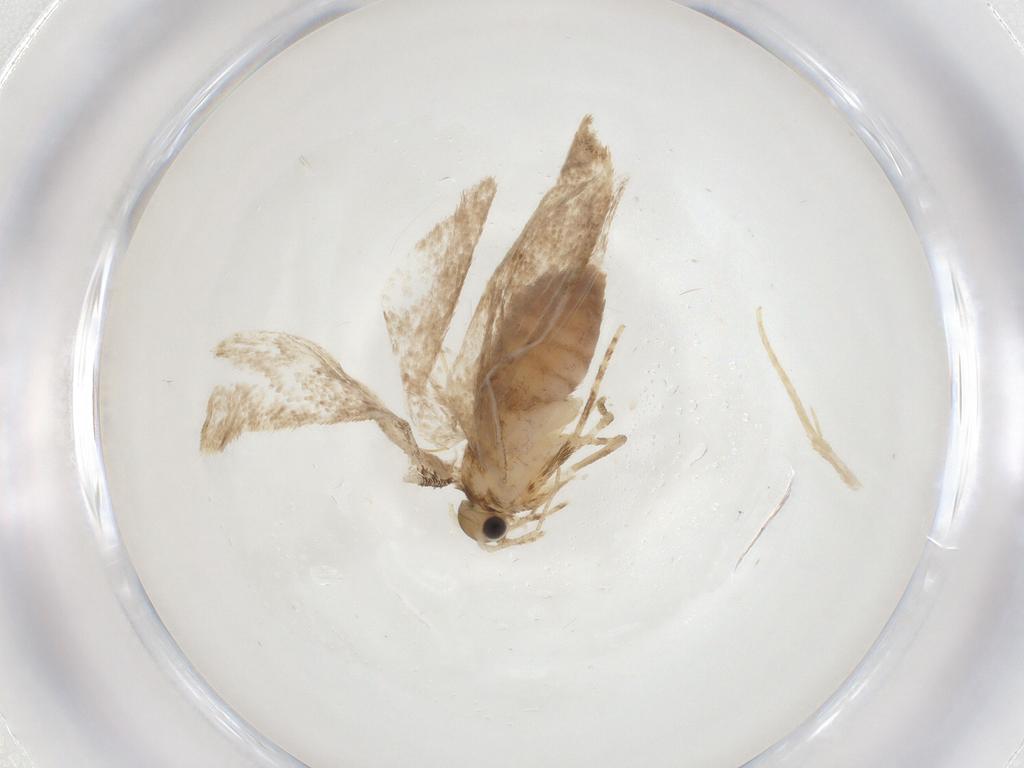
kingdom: Animalia
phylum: Arthropoda
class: Insecta
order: Lepidoptera
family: Tineidae
